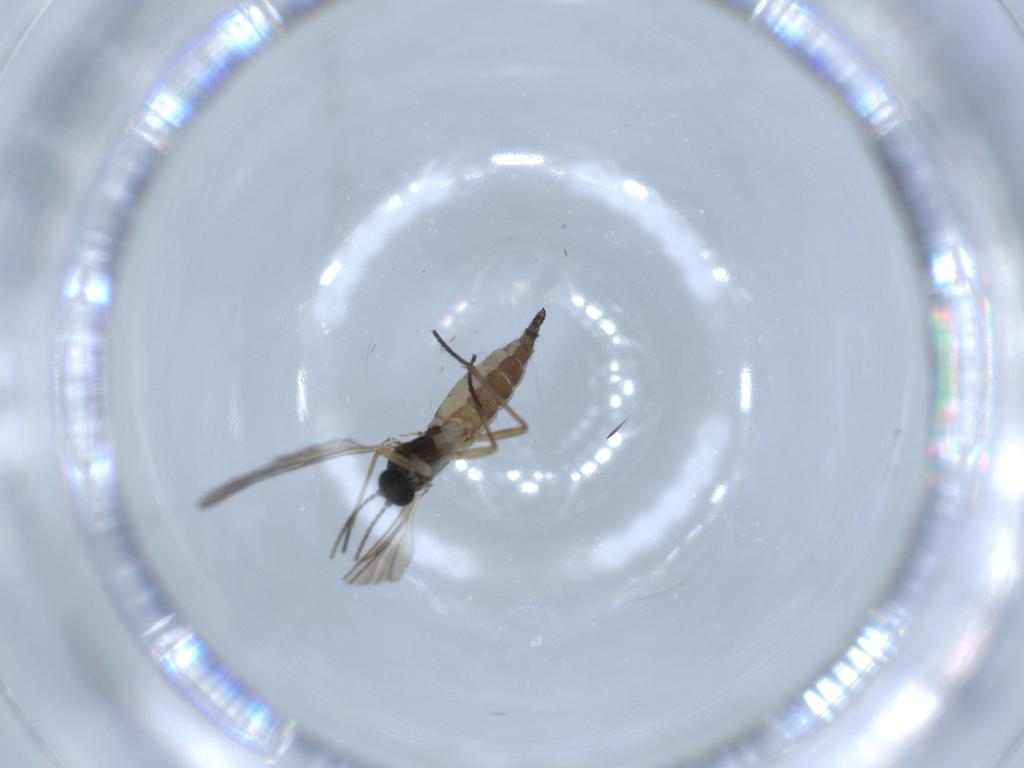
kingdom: Animalia
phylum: Arthropoda
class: Insecta
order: Diptera
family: Sciaridae
